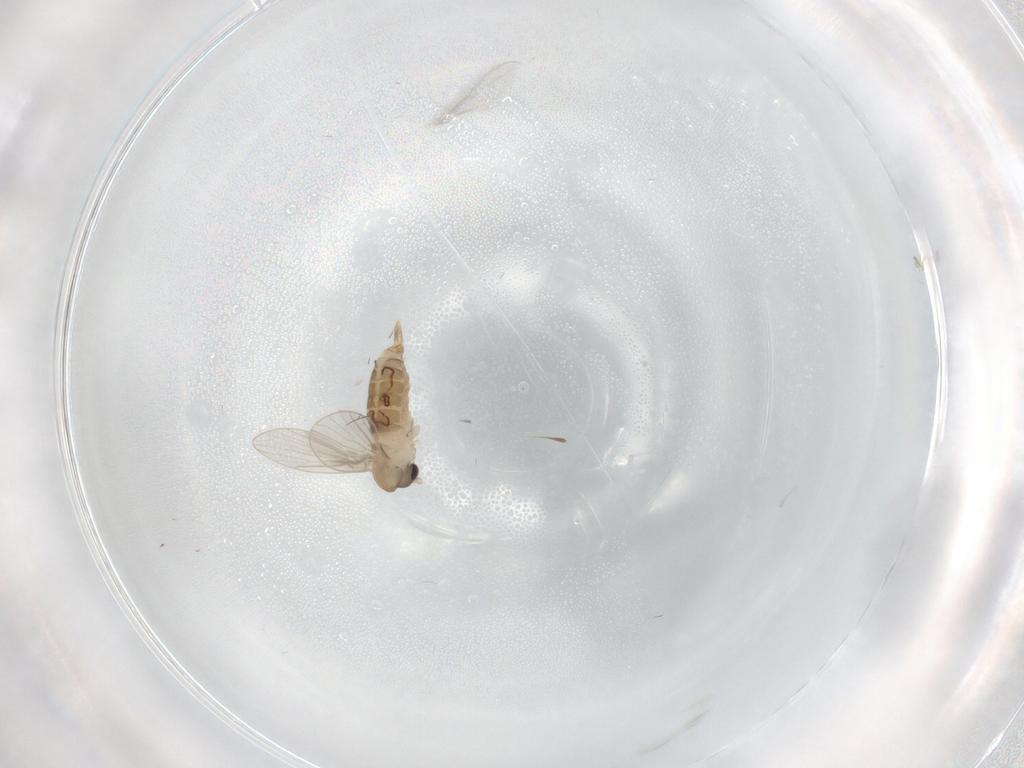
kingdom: Animalia
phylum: Arthropoda
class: Insecta
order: Diptera
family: Psychodidae
